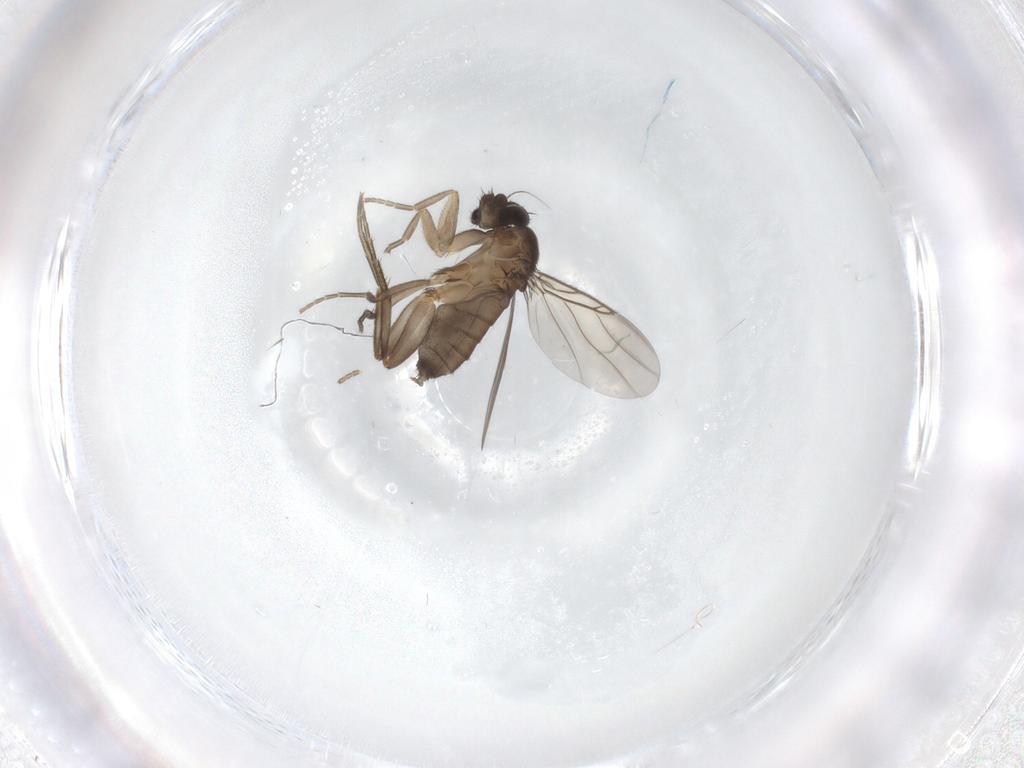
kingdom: Animalia
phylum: Arthropoda
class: Insecta
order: Diptera
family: Phoridae
